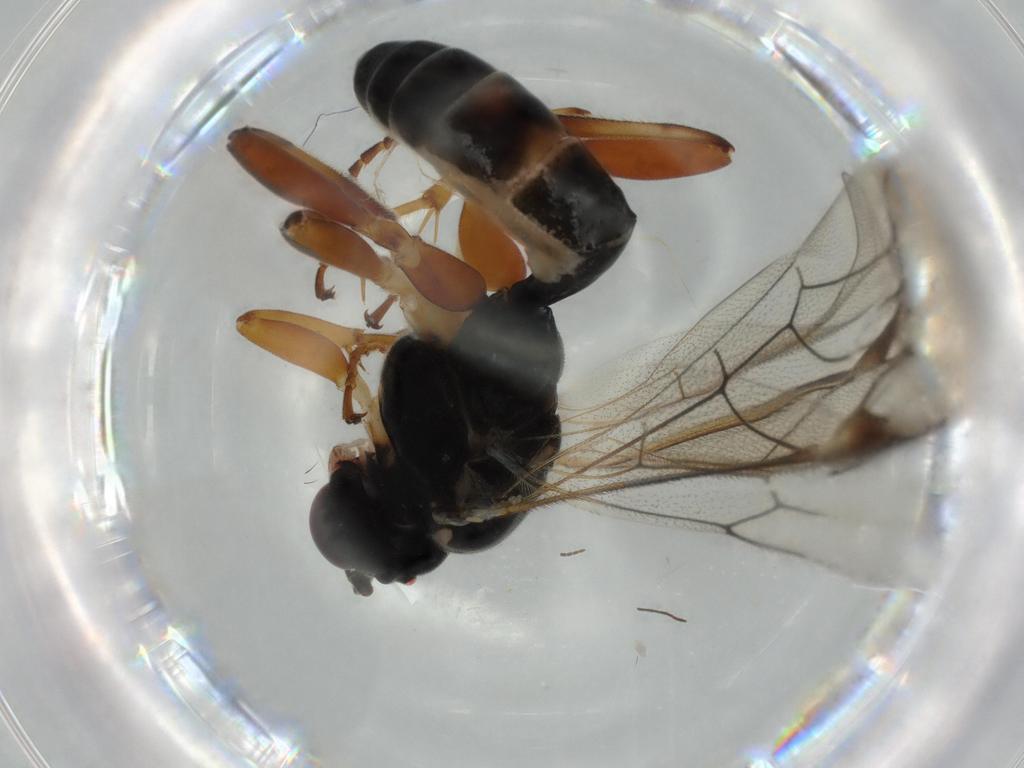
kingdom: Animalia
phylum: Arthropoda
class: Insecta
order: Hymenoptera
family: Ichneumonidae
